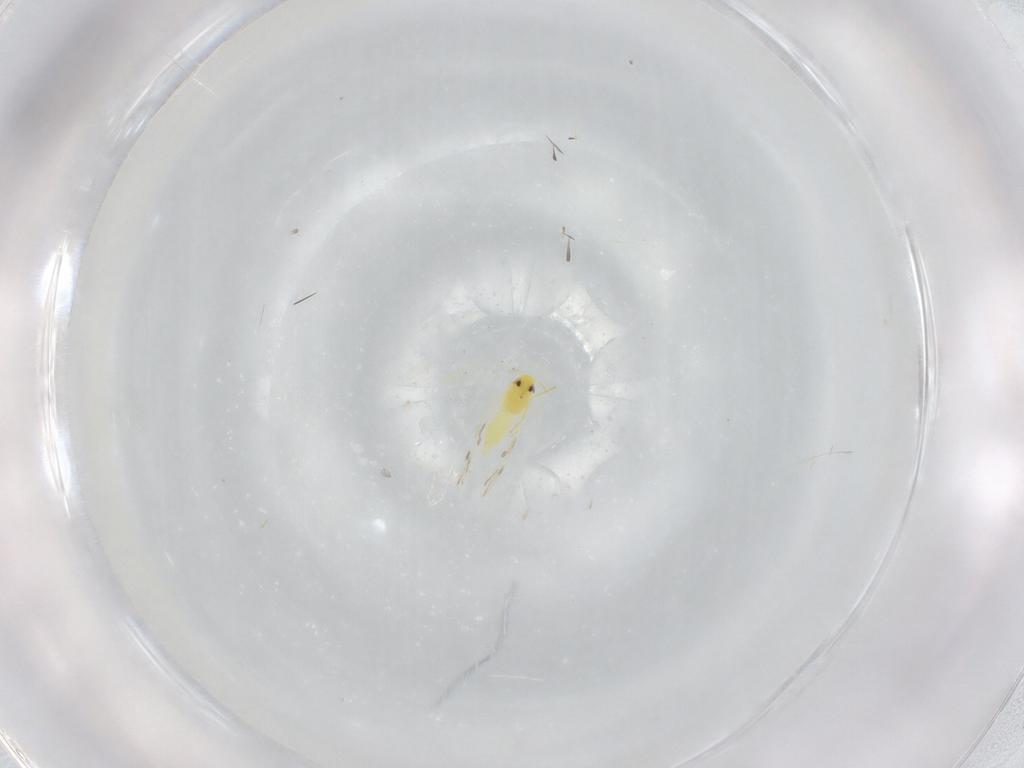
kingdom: Animalia
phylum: Arthropoda
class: Insecta
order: Hemiptera
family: Aleyrodidae
